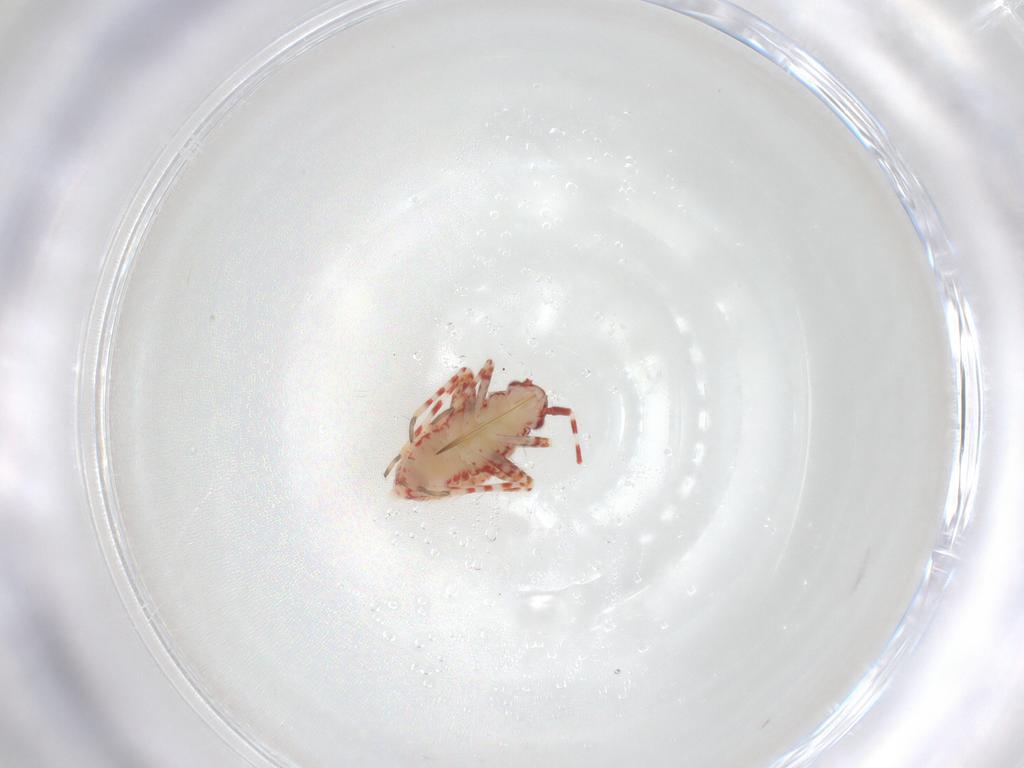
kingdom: Animalia
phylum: Arthropoda
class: Insecta
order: Hemiptera
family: Miridae
